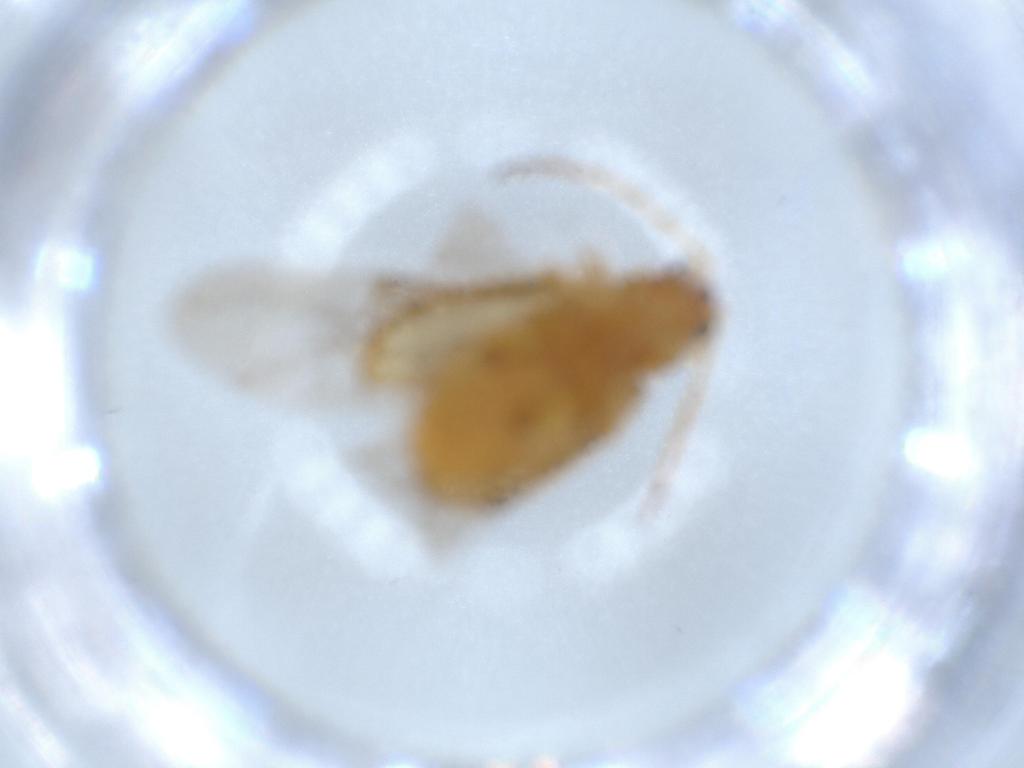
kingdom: Animalia
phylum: Arthropoda
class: Insecta
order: Coleoptera
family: Chrysomelidae
